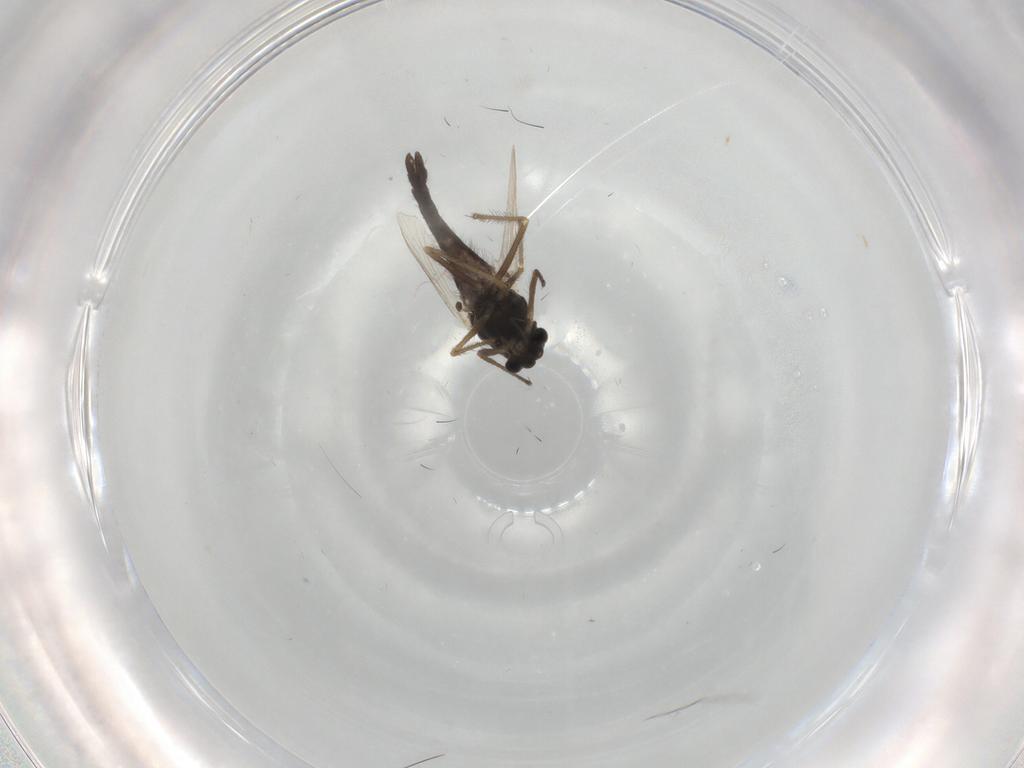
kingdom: Animalia
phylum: Arthropoda
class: Insecta
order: Diptera
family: Chironomidae
